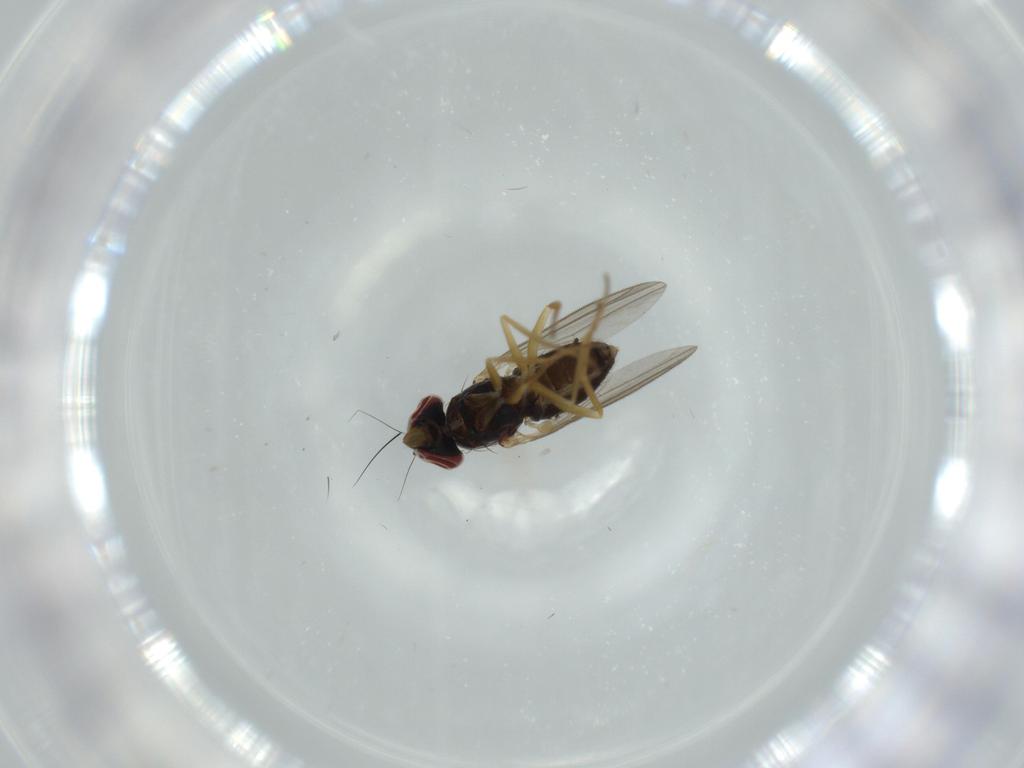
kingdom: Animalia
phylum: Arthropoda
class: Insecta
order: Diptera
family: Dolichopodidae
